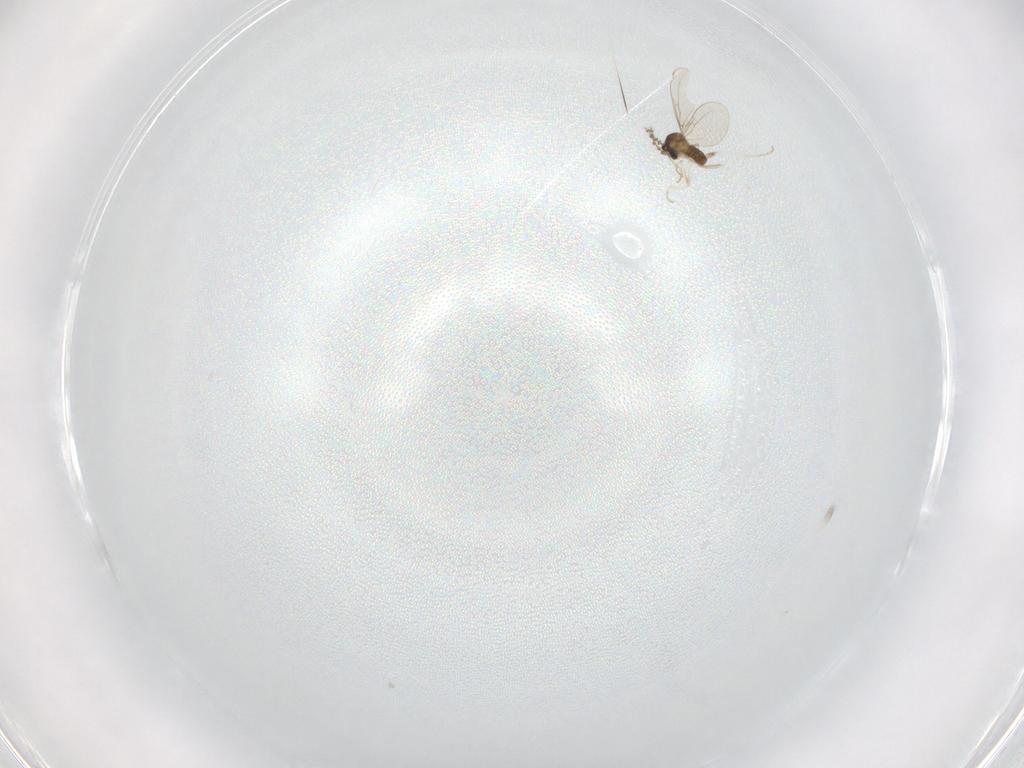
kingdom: Animalia
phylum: Arthropoda
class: Insecta
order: Diptera
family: Psychodidae
